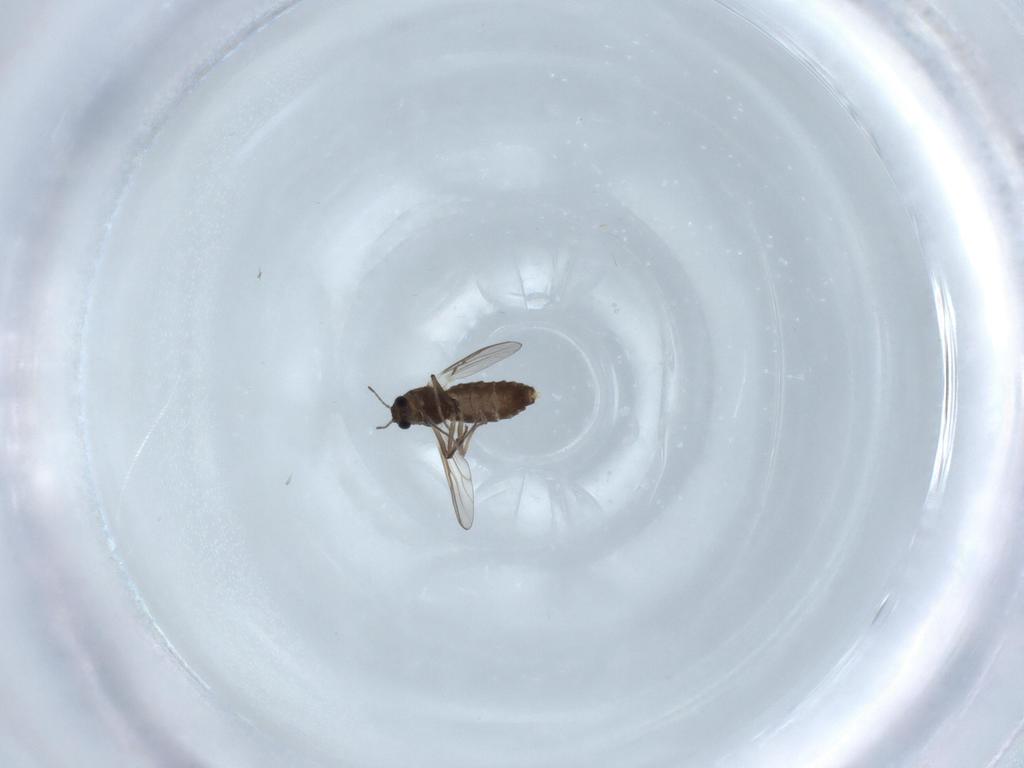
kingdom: Animalia
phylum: Arthropoda
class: Insecta
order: Diptera
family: Chironomidae
